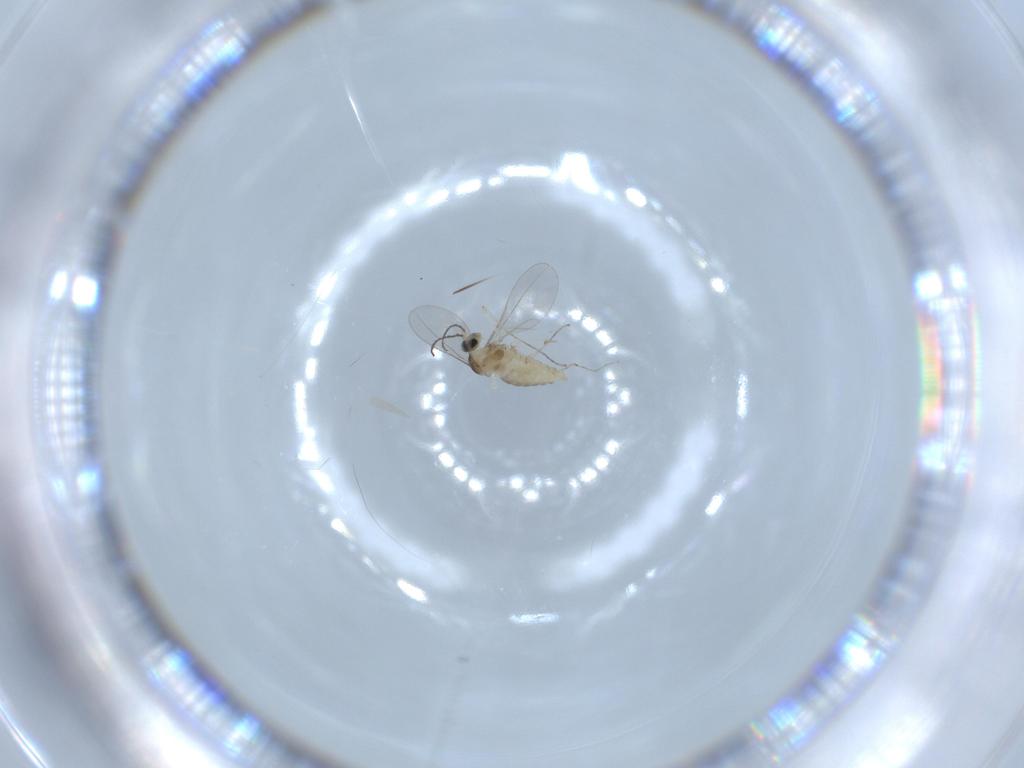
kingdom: Animalia
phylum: Arthropoda
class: Insecta
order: Diptera
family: Cecidomyiidae
